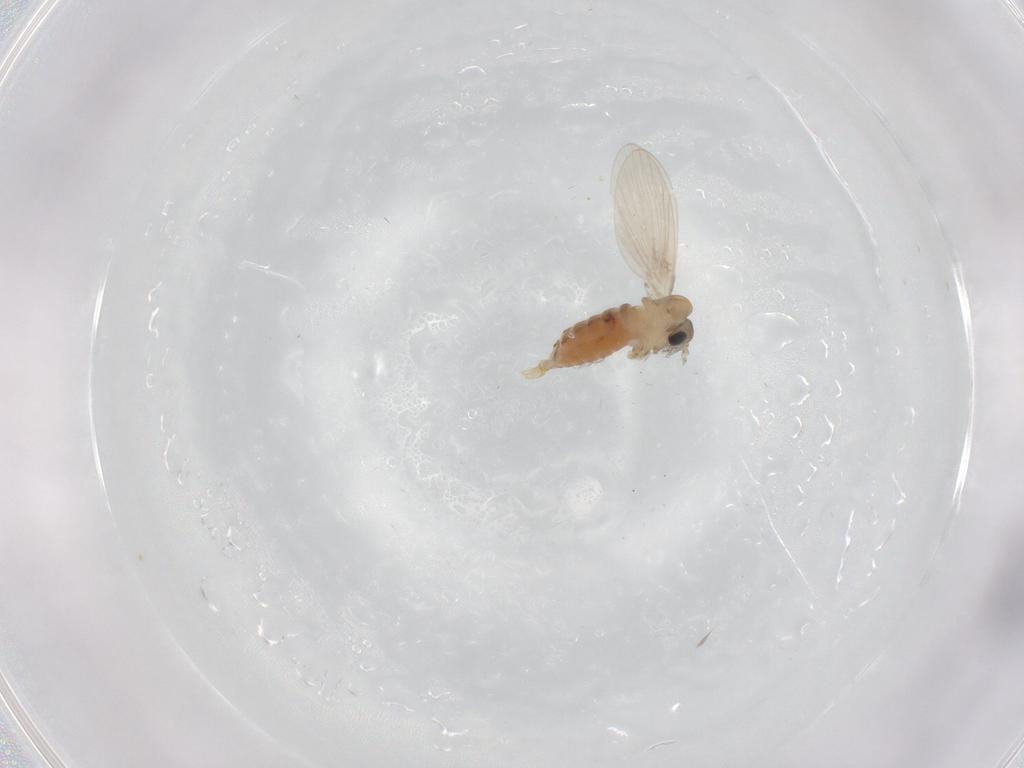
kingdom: Animalia
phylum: Arthropoda
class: Insecta
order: Diptera
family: Psychodidae
